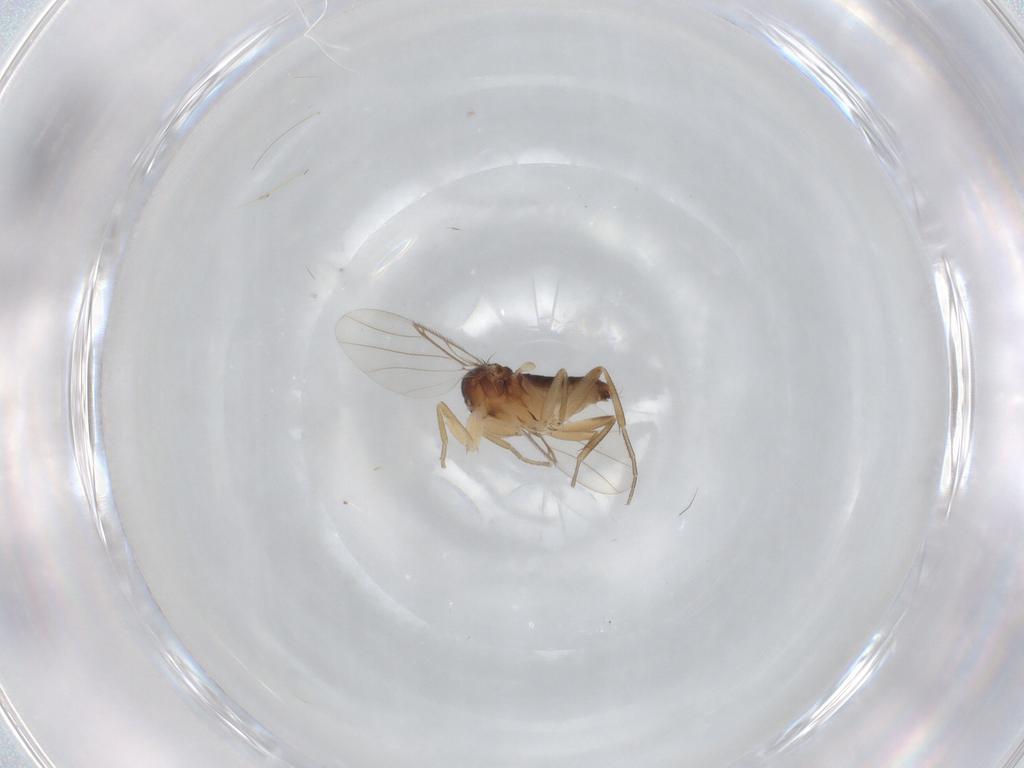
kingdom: Animalia
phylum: Arthropoda
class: Insecta
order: Diptera
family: Phoridae
